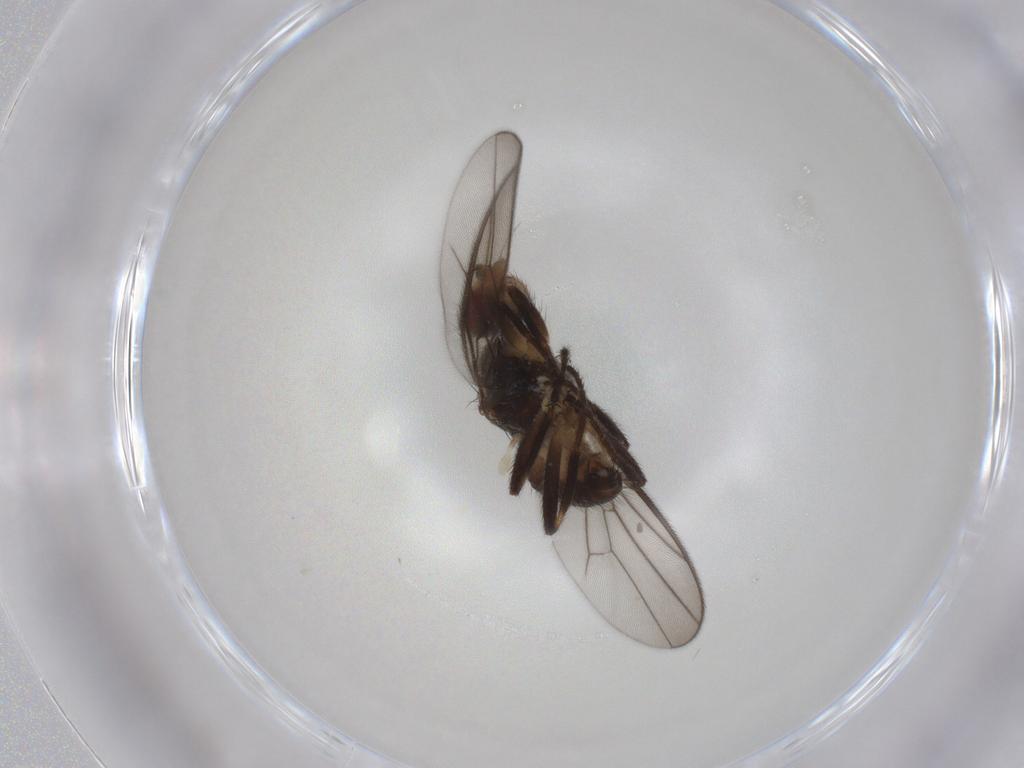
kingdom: Animalia
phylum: Arthropoda
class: Insecta
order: Diptera
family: Chloropidae
